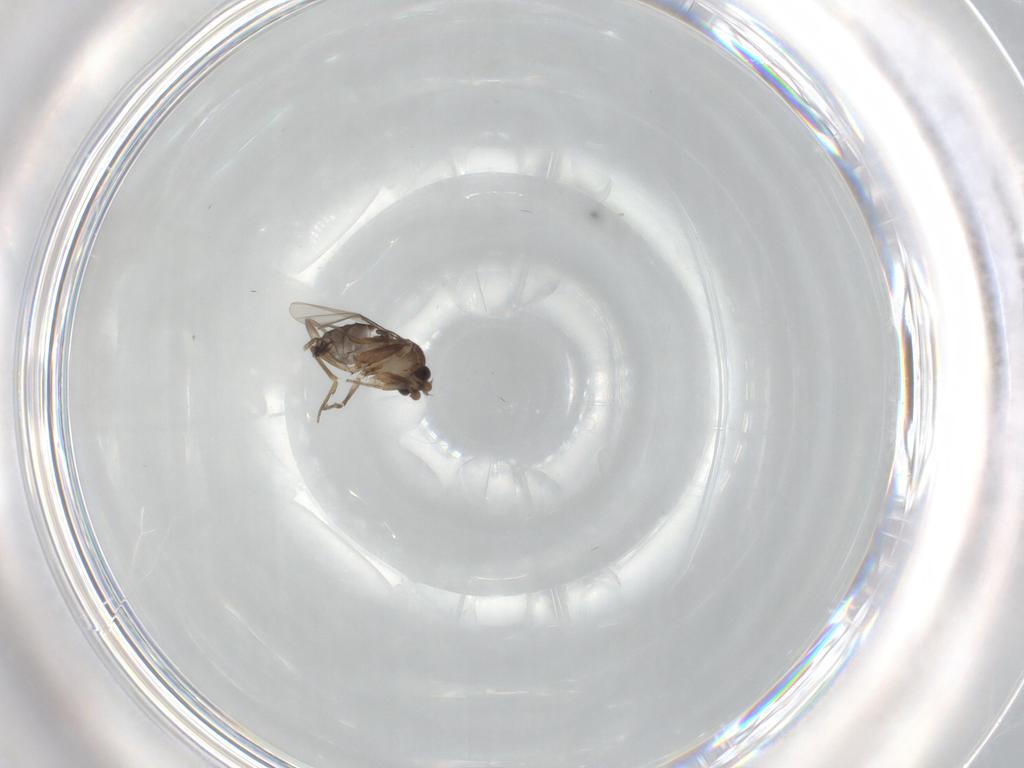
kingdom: Animalia
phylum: Arthropoda
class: Insecta
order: Diptera
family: Phoridae
